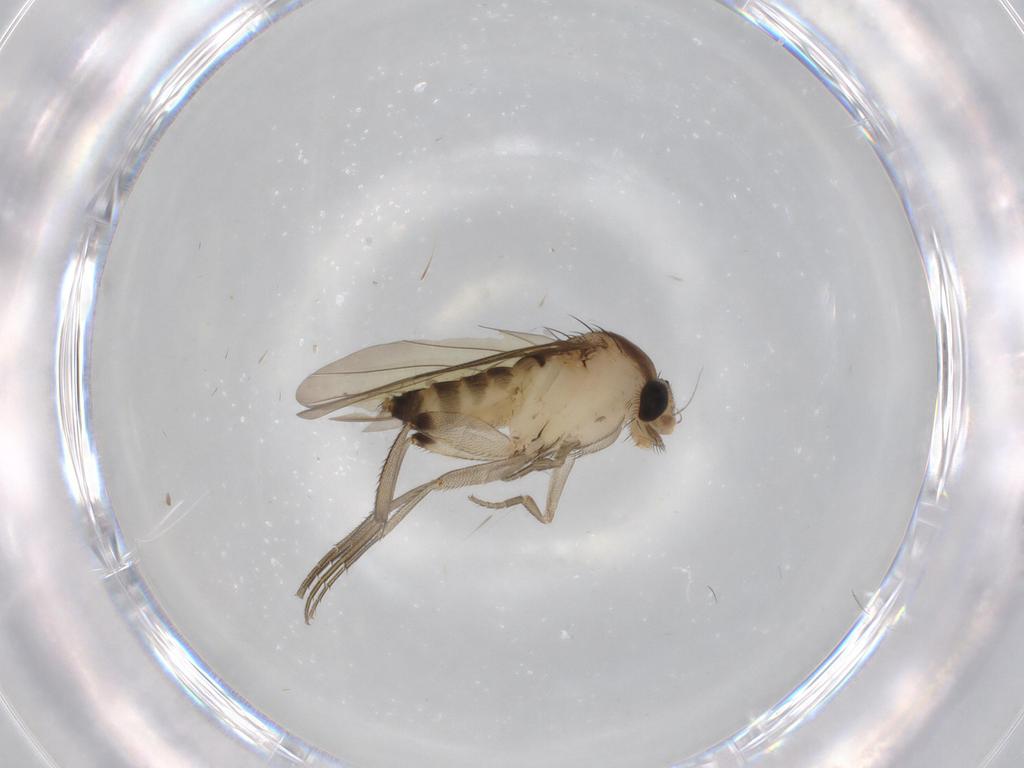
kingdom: Animalia
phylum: Arthropoda
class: Insecta
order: Diptera
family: Phoridae
